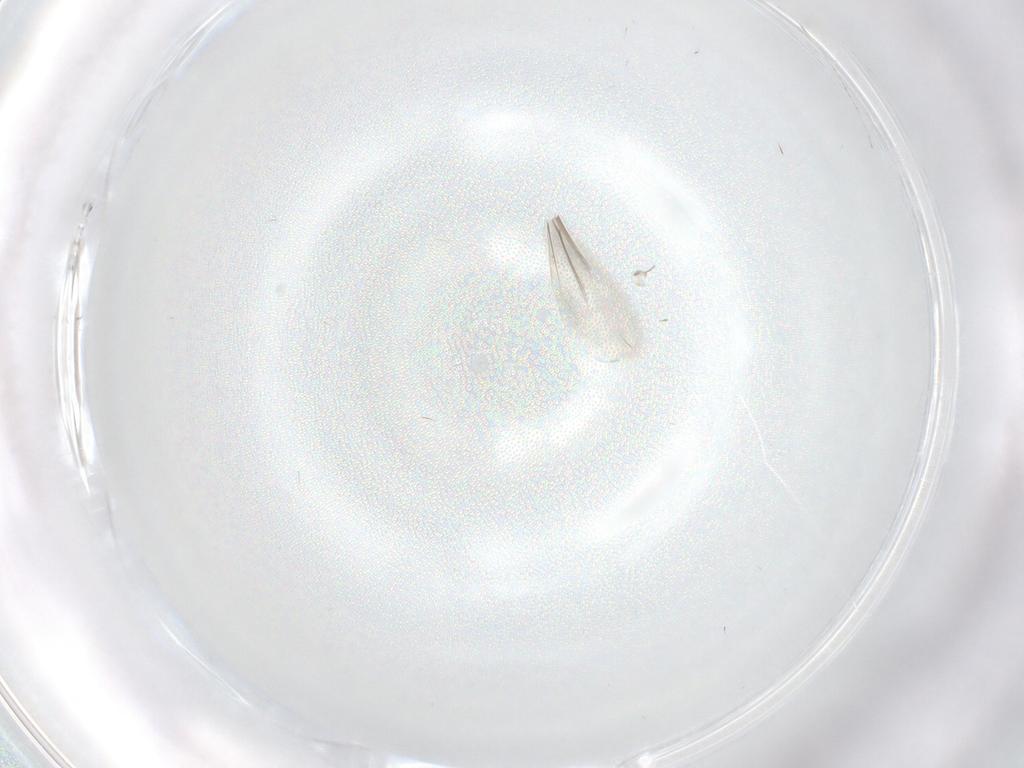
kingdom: Animalia
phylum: Arthropoda
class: Insecta
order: Diptera
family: Cecidomyiidae
